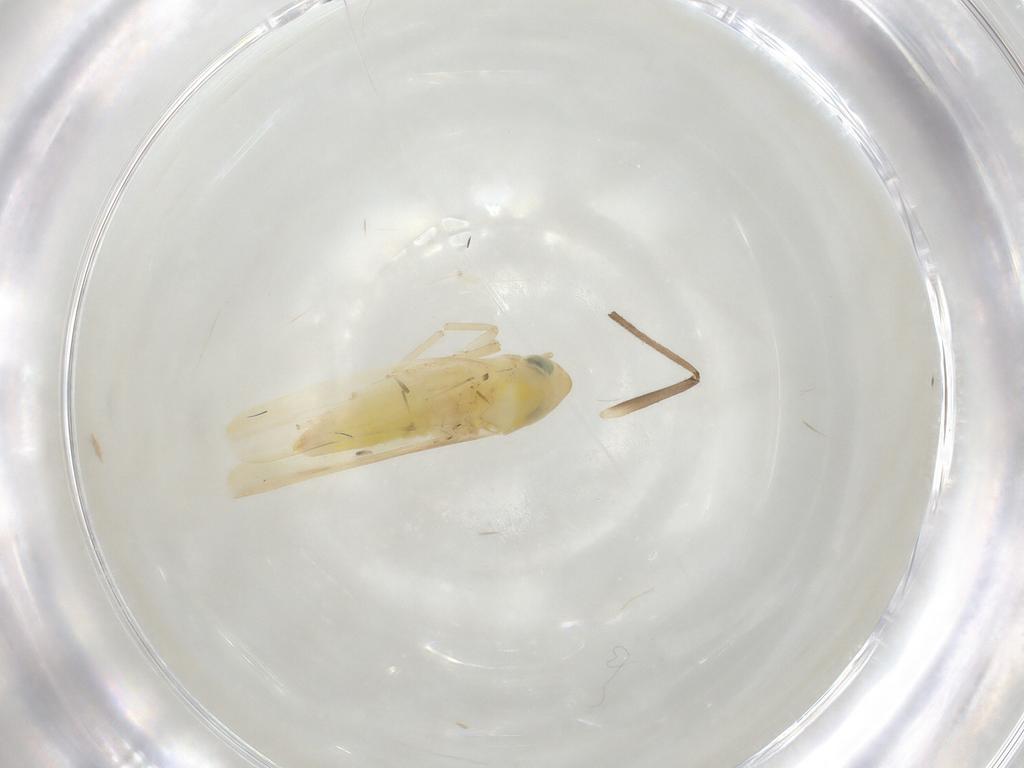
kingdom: Animalia
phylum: Arthropoda
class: Insecta
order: Hemiptera
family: Cicadellidae
